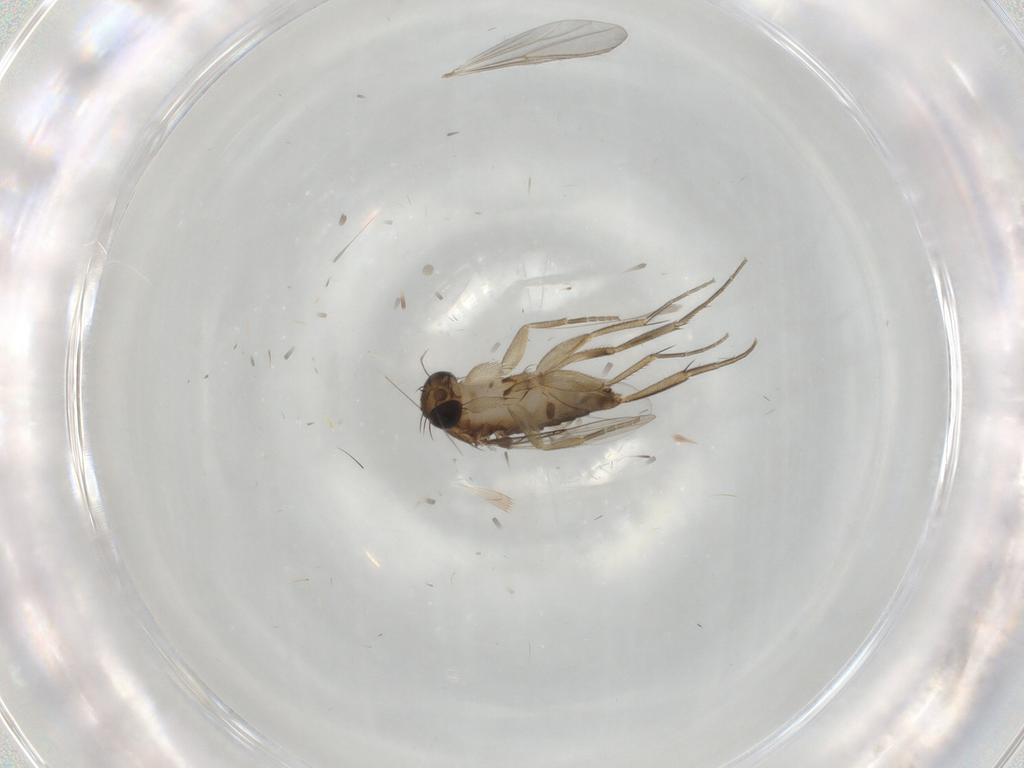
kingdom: Animalia
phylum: Arthropoda
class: Insecta
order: Diptera
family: Phoridae
